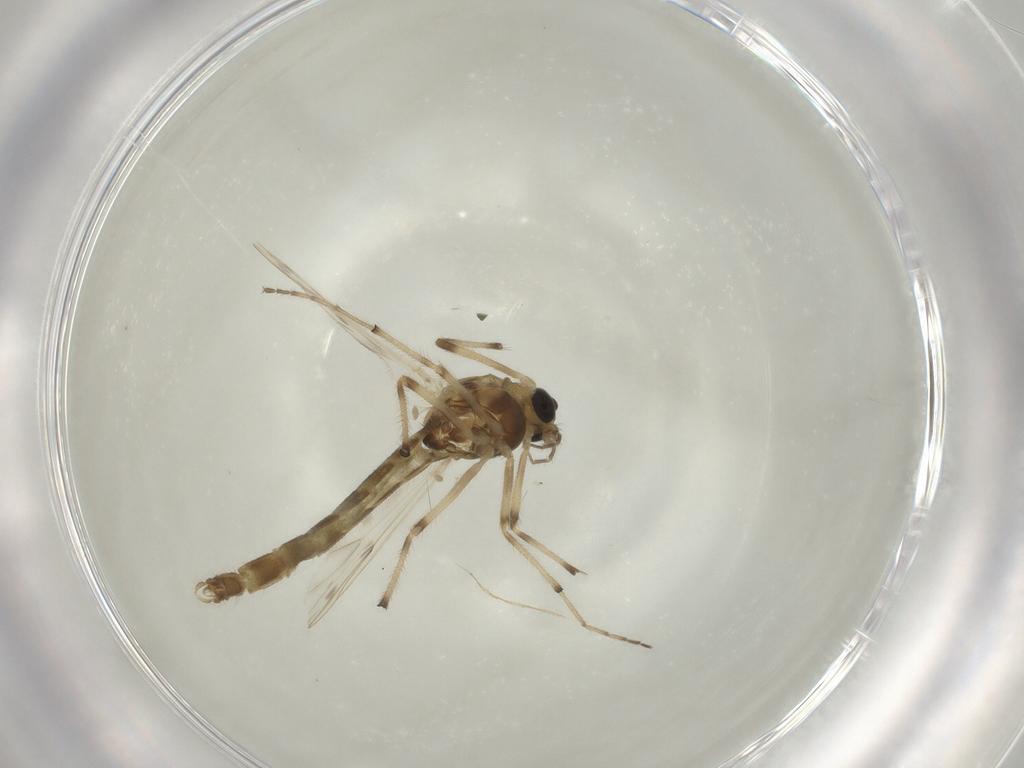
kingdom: Animalia
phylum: Arthropoda
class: Insecta
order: Diptera
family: Chironomidae
